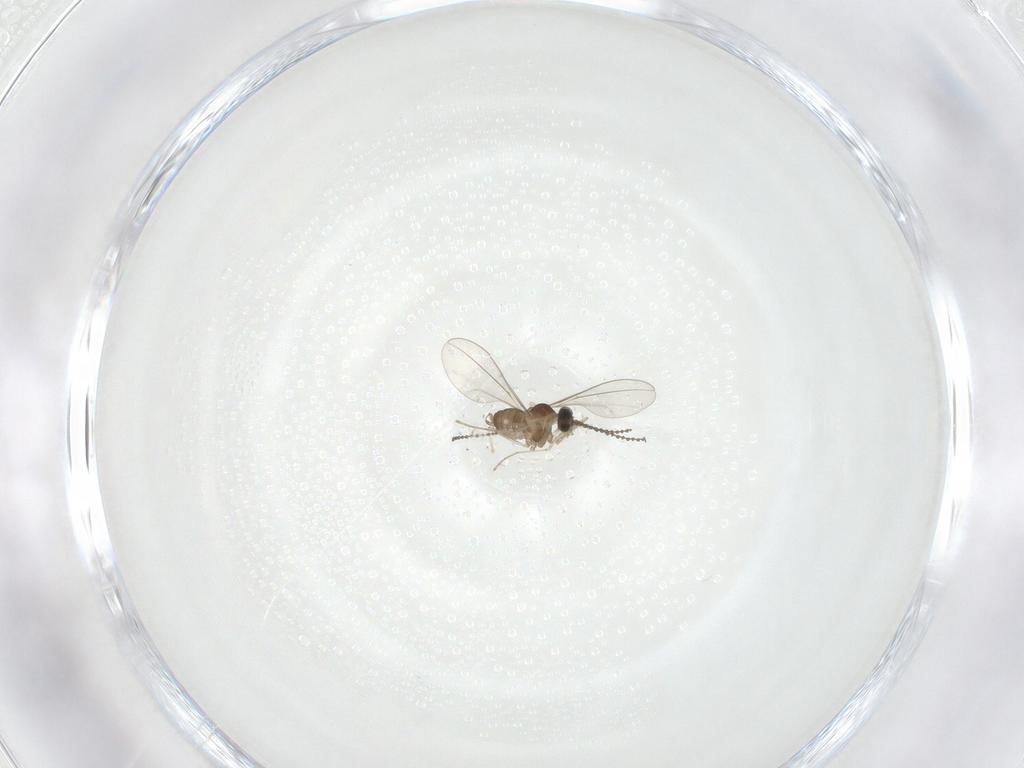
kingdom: Animalia
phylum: Arthropoda
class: Insecta
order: Diptera
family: Cecidomyiidae
